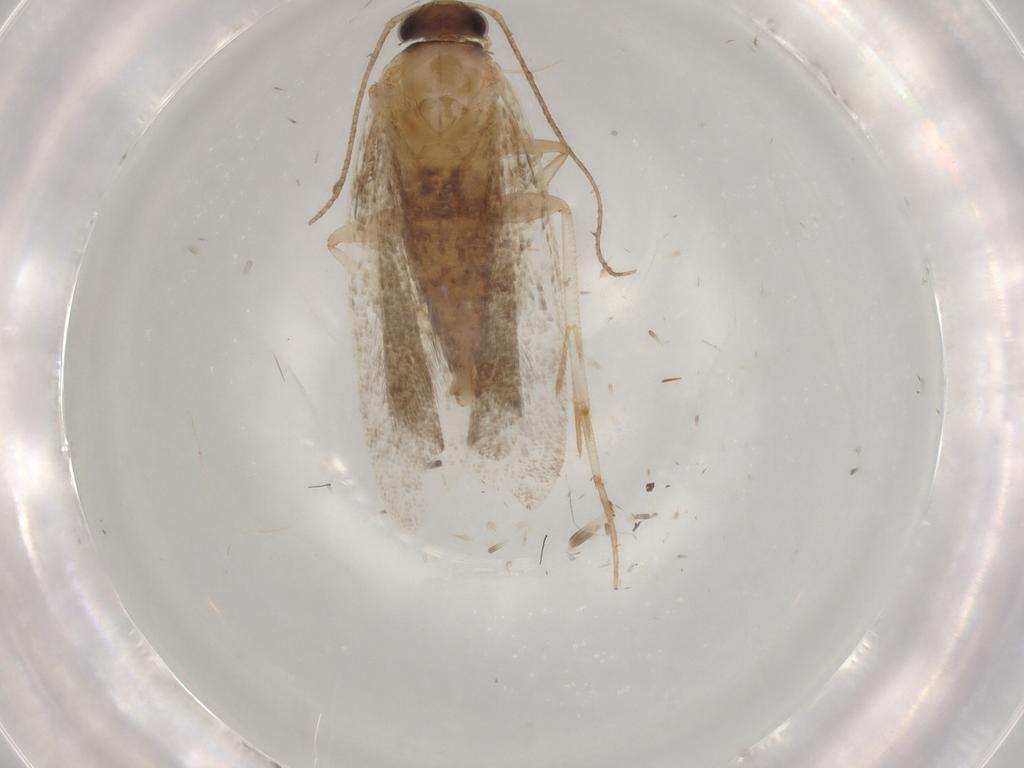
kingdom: Animalia
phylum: Arthropoda
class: Insecta
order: Lepidoptera
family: Gelechiidae
